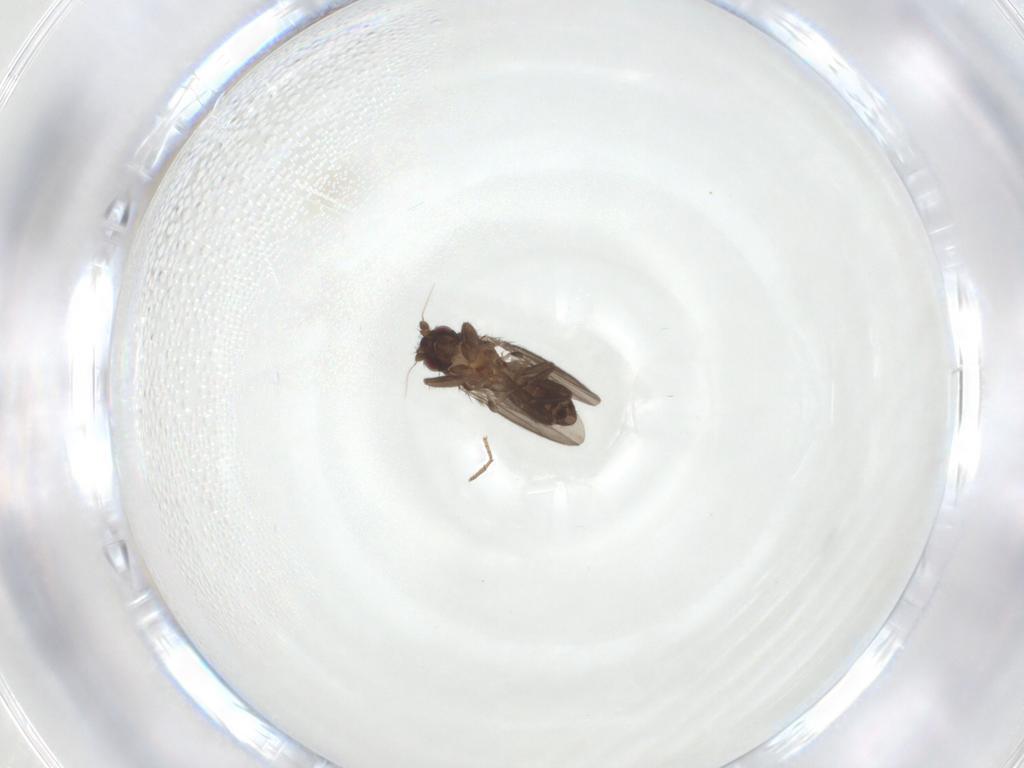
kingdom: Animalia
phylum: Arthropoda
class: Insecta
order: Diptera
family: Sphaeroceridae
